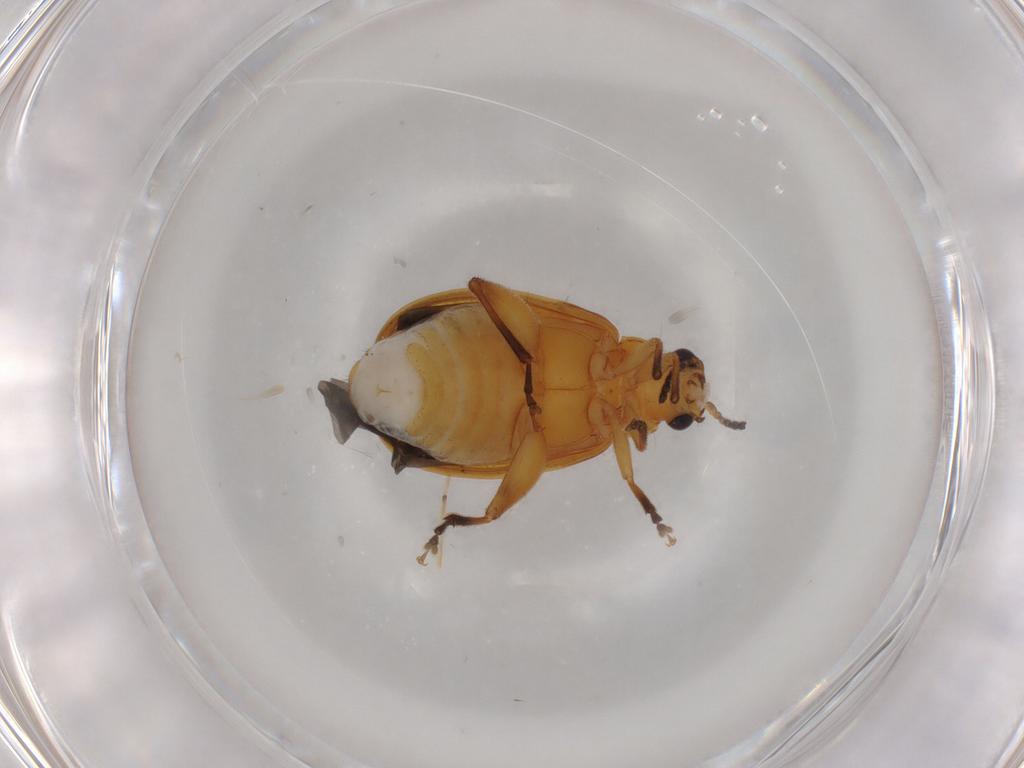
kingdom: Animalia
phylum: Arthropoda
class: Insecta
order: Coleoptera
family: Chrysomelidae
